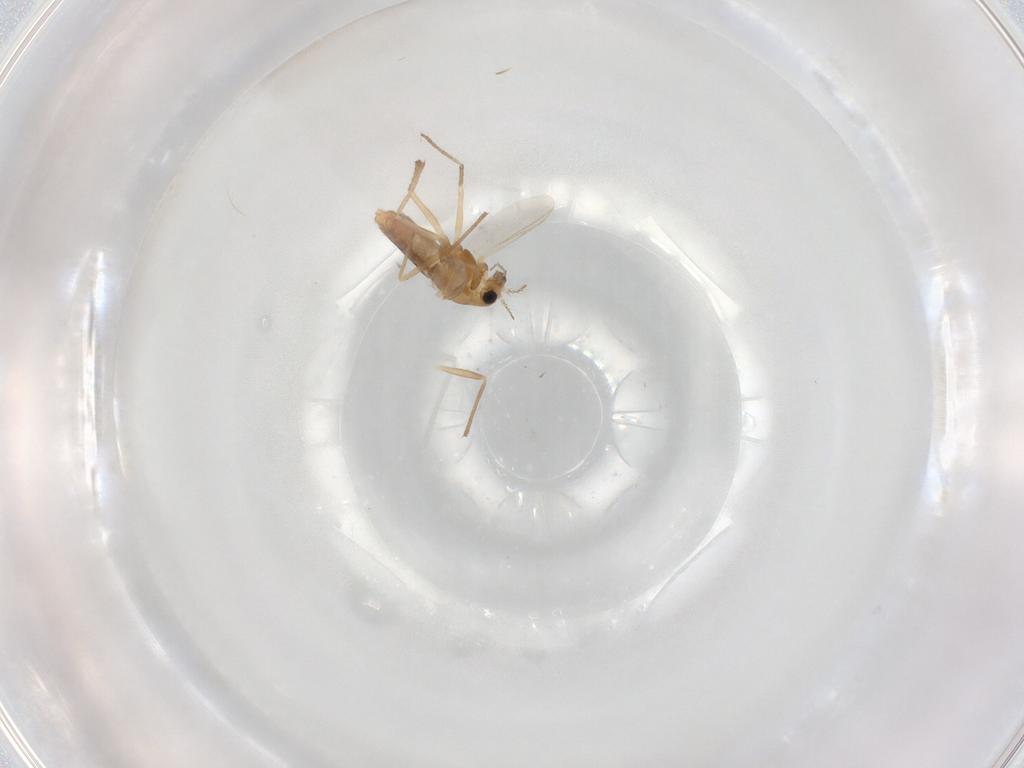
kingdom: Animalia
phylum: Arthropoda
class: Insecta
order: Diptera
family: Chironomidae
